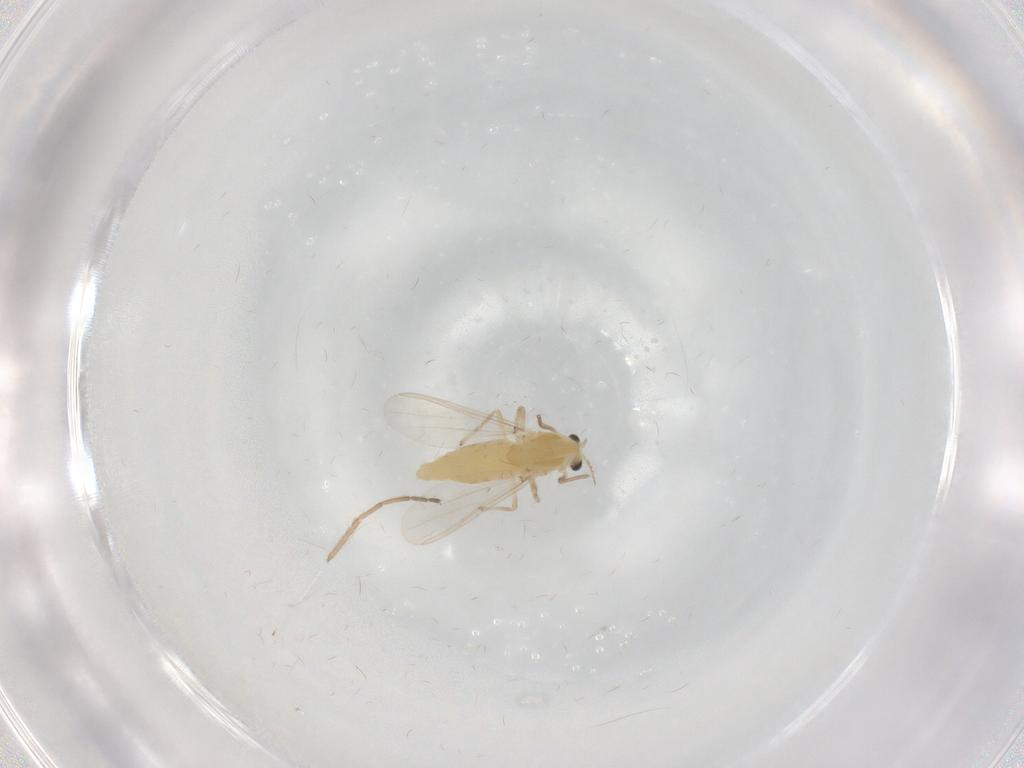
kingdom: Animalia
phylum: Arthropoda
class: Insecta
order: Diptera
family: Chironomidae
